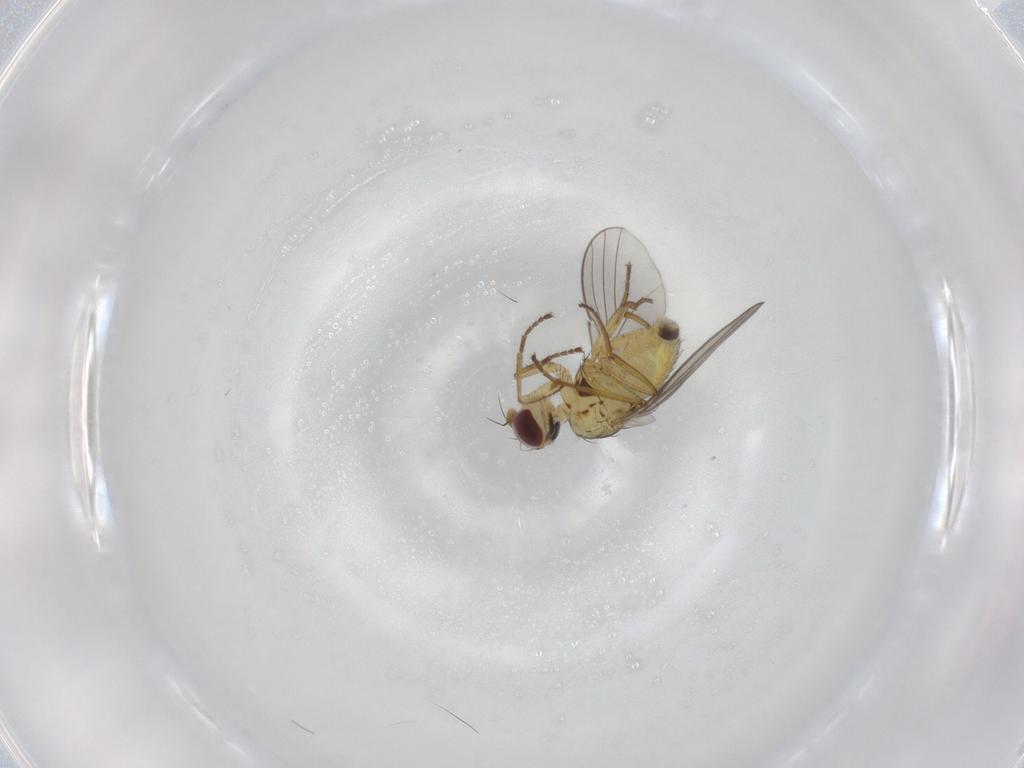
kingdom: Animalia
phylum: Arthropoda
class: Insecta
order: Diptera
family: Agromyzidae
